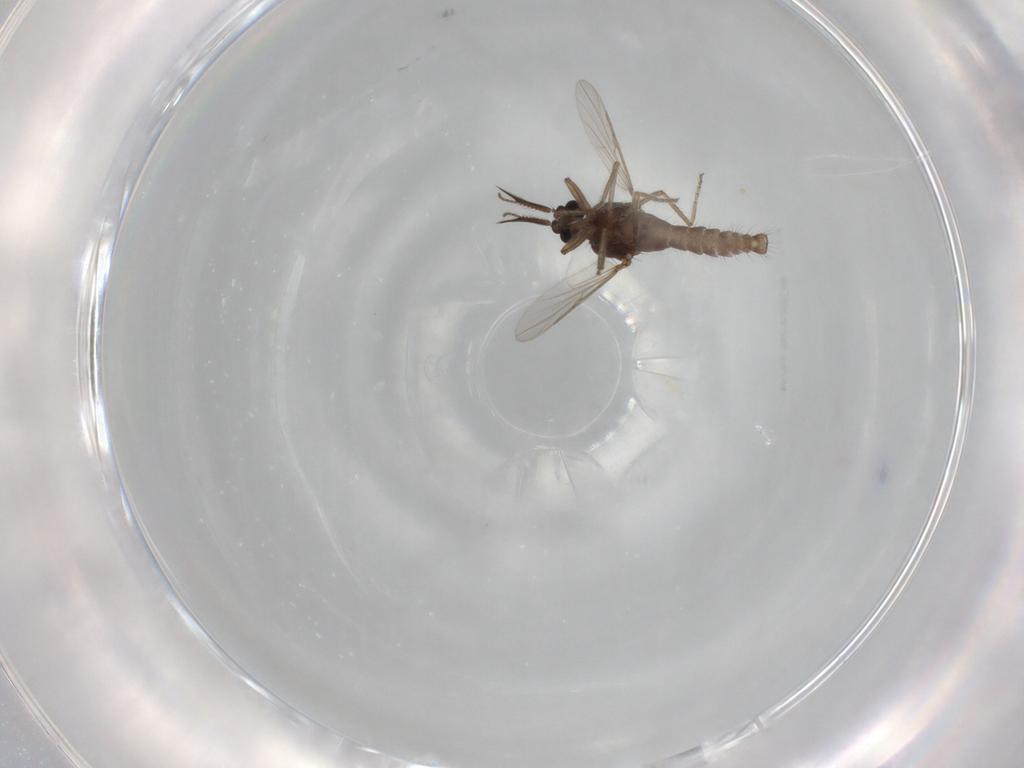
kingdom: Animalia
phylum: Arthropoda
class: Insecta
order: Diptera
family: Ceratopogonidae
